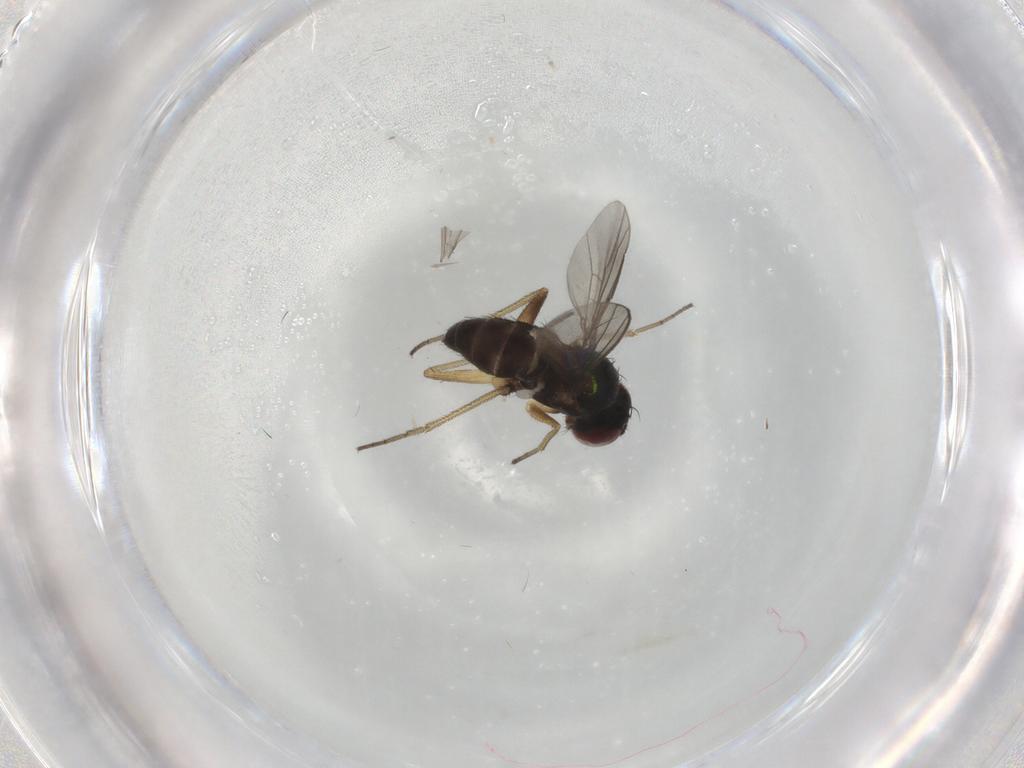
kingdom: Animalia
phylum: Arthropoda
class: Insecta
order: Diptera
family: Dolichopodidae
